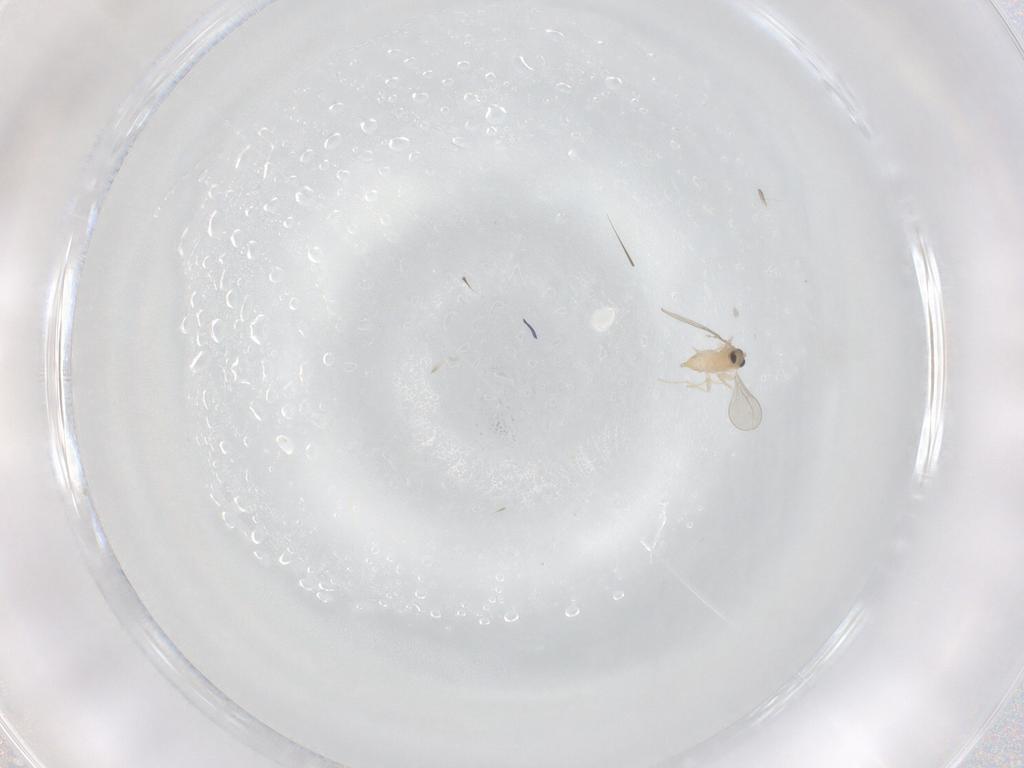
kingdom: Animalia
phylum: Arthropoda
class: Insecta
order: Diptera
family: Cecidomyiidae
